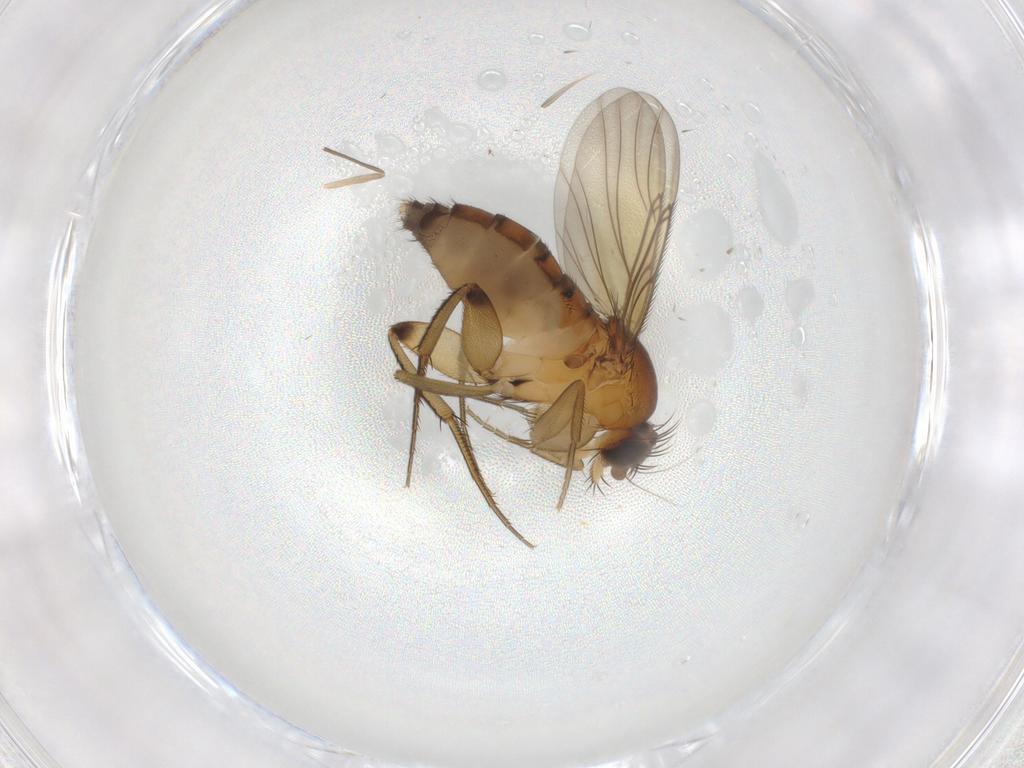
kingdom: Animalia
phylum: Arthropoda
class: Insecta
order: Diptera
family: Phoridae
